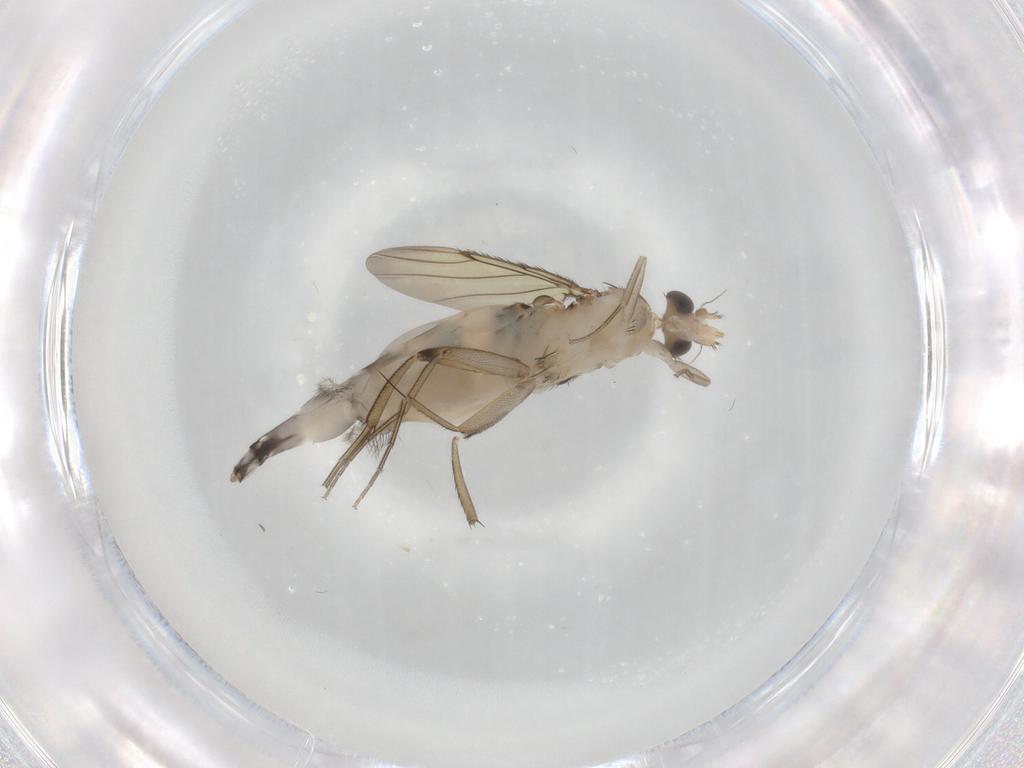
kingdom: Animalia
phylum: Arthropoda
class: Insecta
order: Diptera
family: Phoridae
